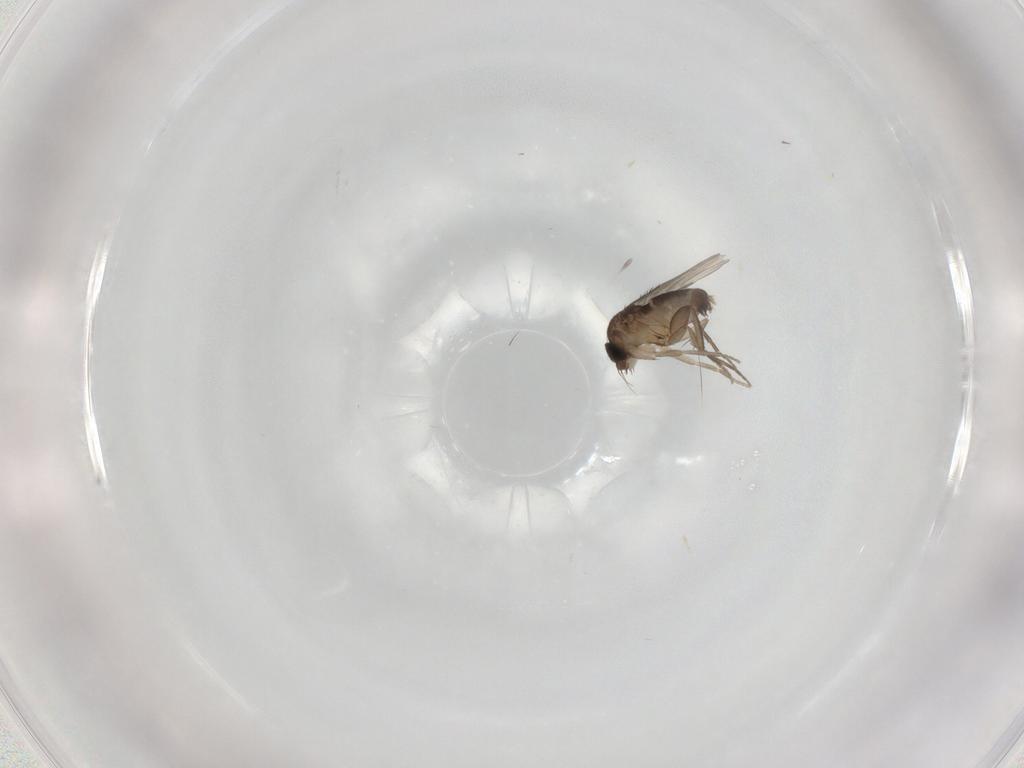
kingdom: Animalia
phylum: Arthropoda
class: Insecta
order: Diptera
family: Phoridae
